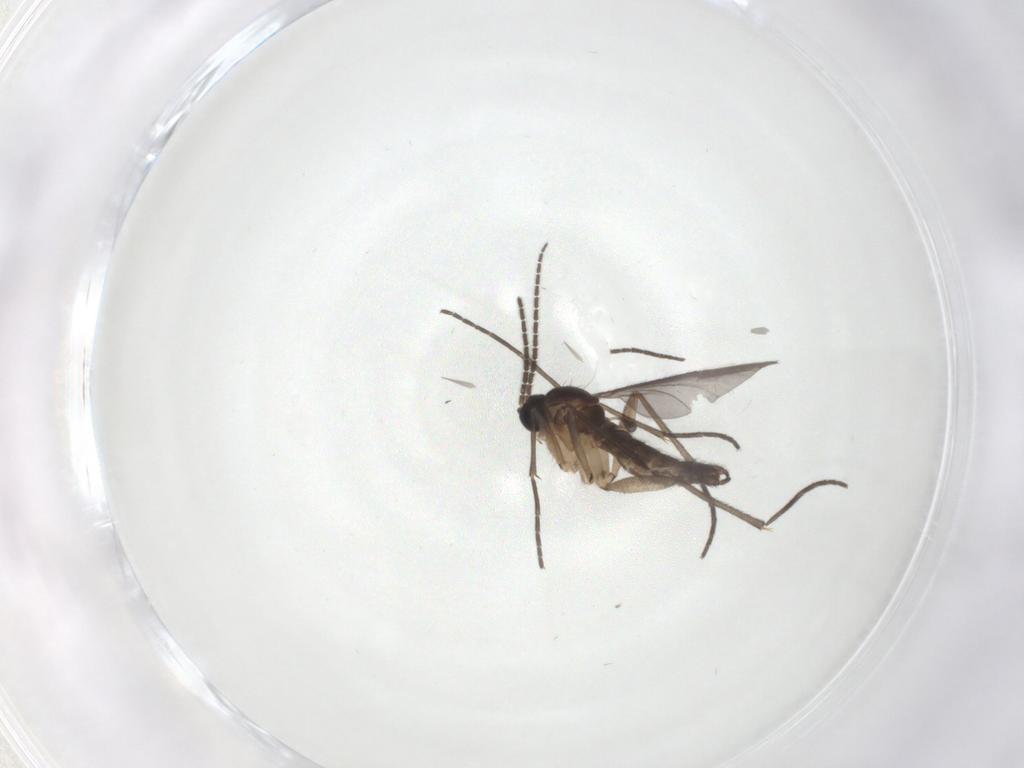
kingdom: Animalia
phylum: Arthropoda
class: Insecta
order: Diptera
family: Sciaridae
